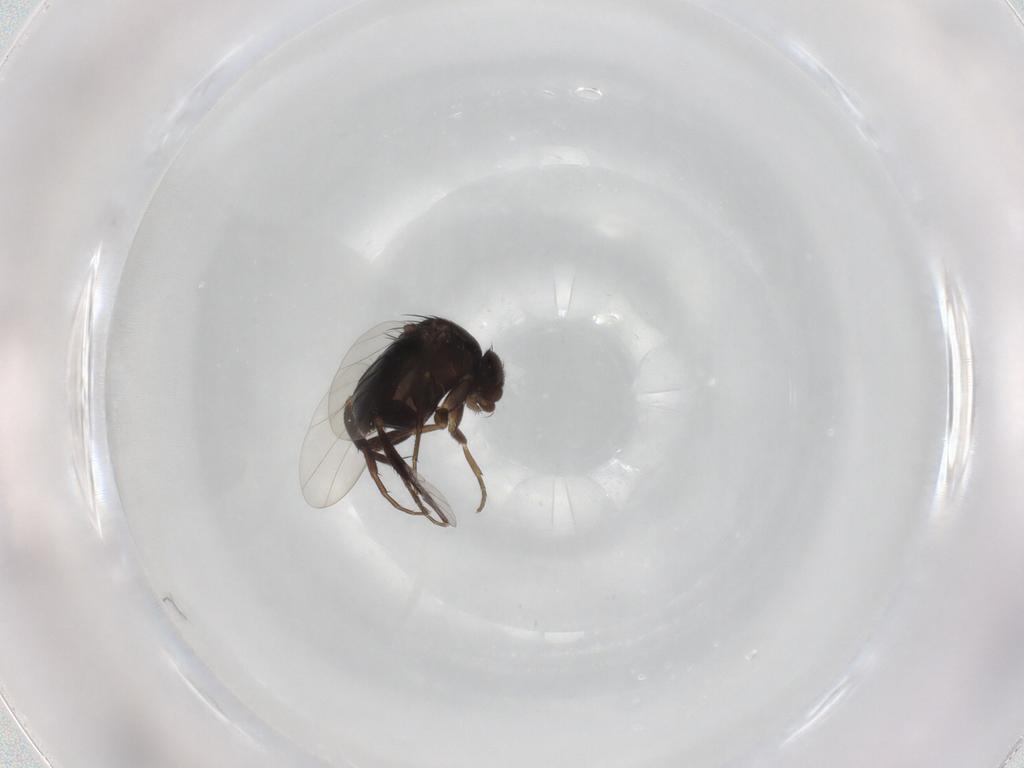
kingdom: Animalia
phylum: Arthropoda
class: Insecta
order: Diptera
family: Phoridae
